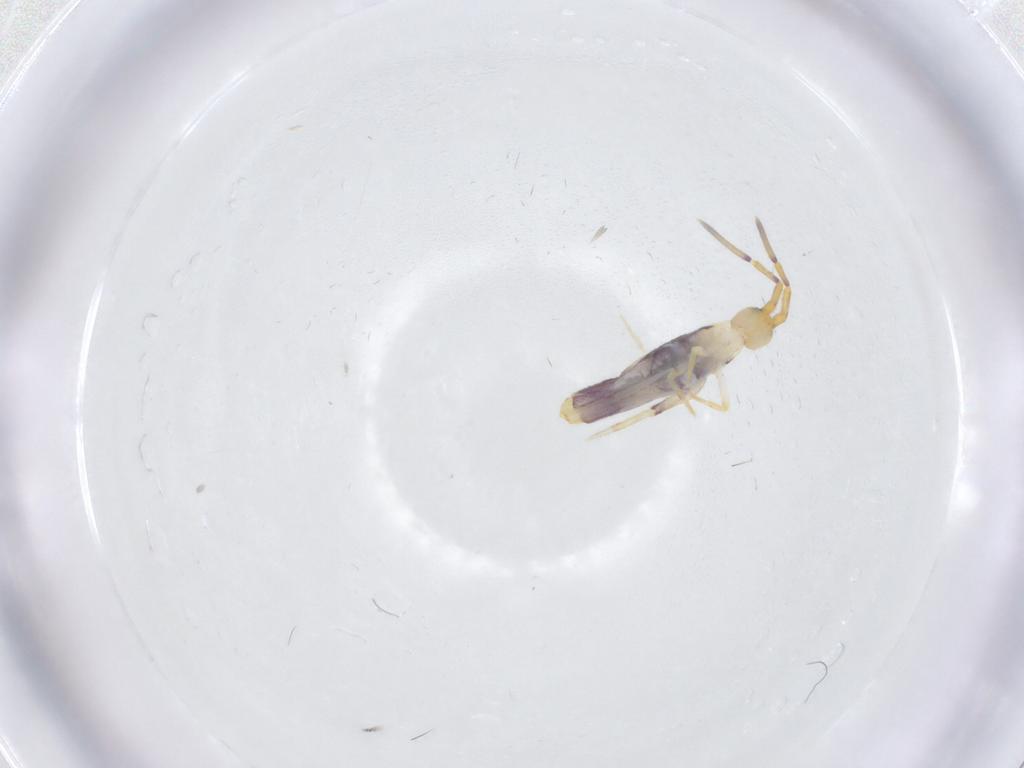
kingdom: Animalia
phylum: Arthropoda
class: Collembola
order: Entomobryomorpha
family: Entomobryidae
